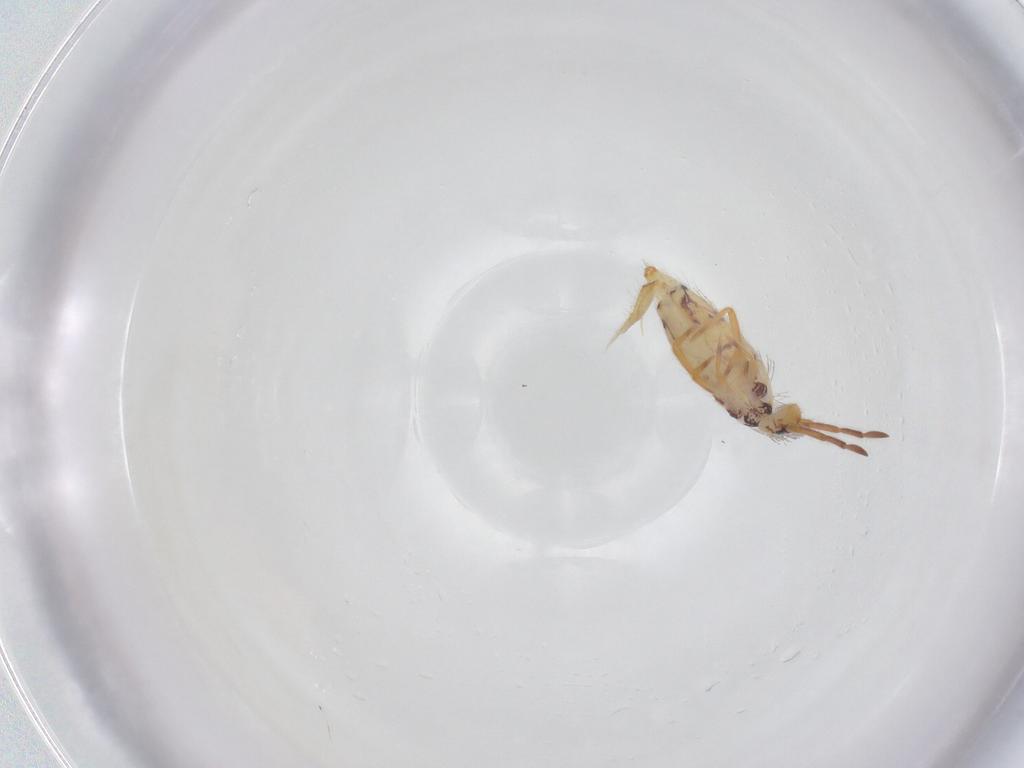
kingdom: Animalia
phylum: Arthropoda
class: Collembola
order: Entomobryomorpha
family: Entomobryidae
